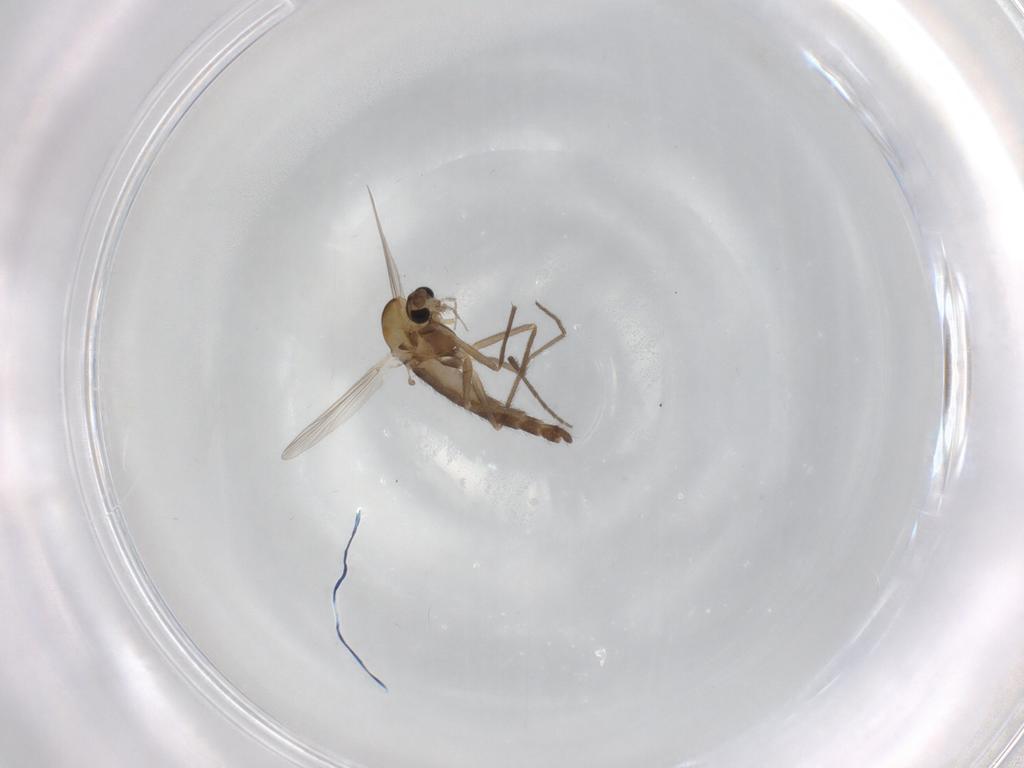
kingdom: Animalia
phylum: Arthropoda
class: Insecta
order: Diptera
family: Chironomidae
